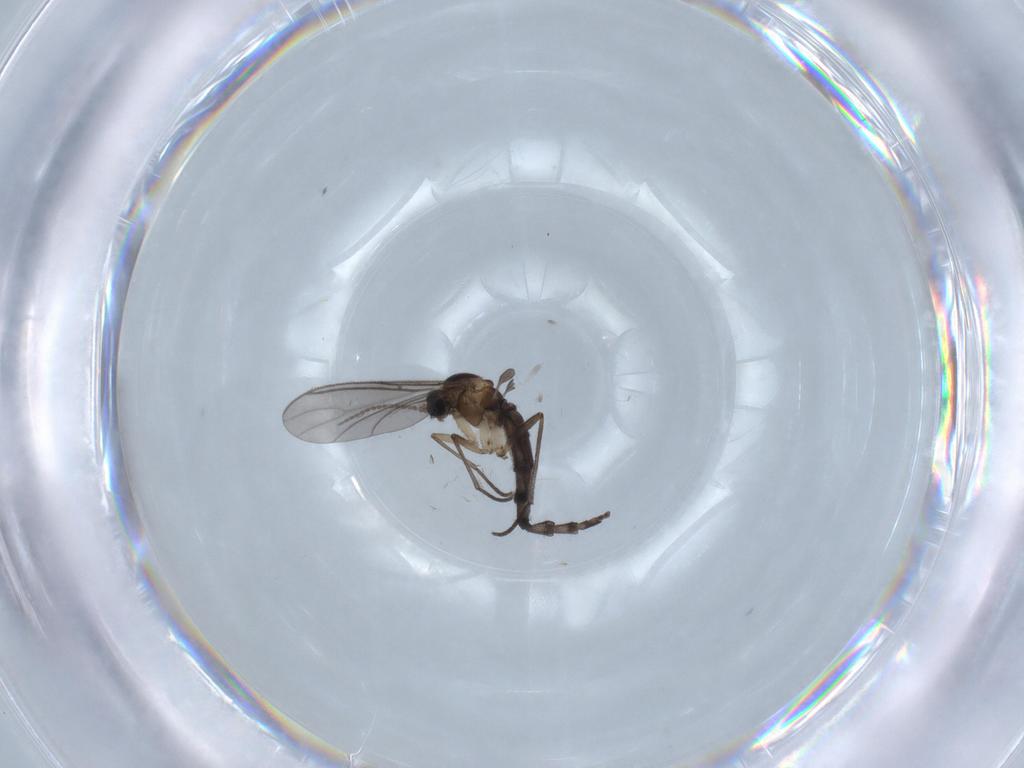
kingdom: Animalia
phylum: Arthropoda
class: Insecta
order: Diptera
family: Sciaridae
